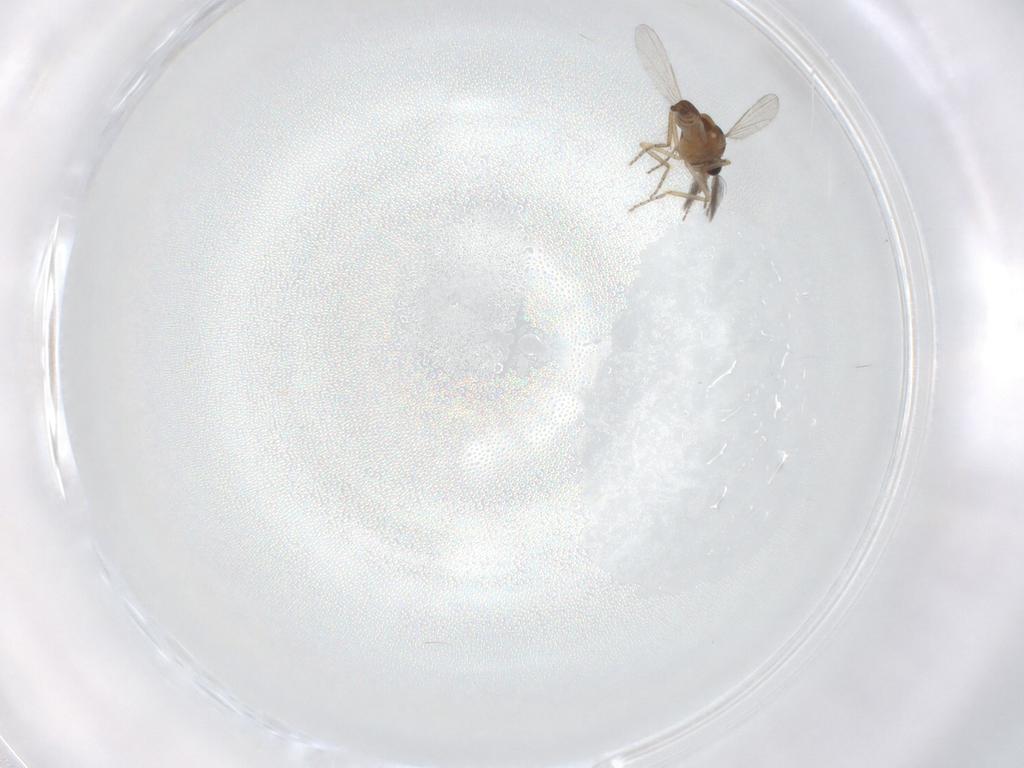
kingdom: Animalia
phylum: Arthropoda
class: Insecta
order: Diptera
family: Ceratopogonidae
